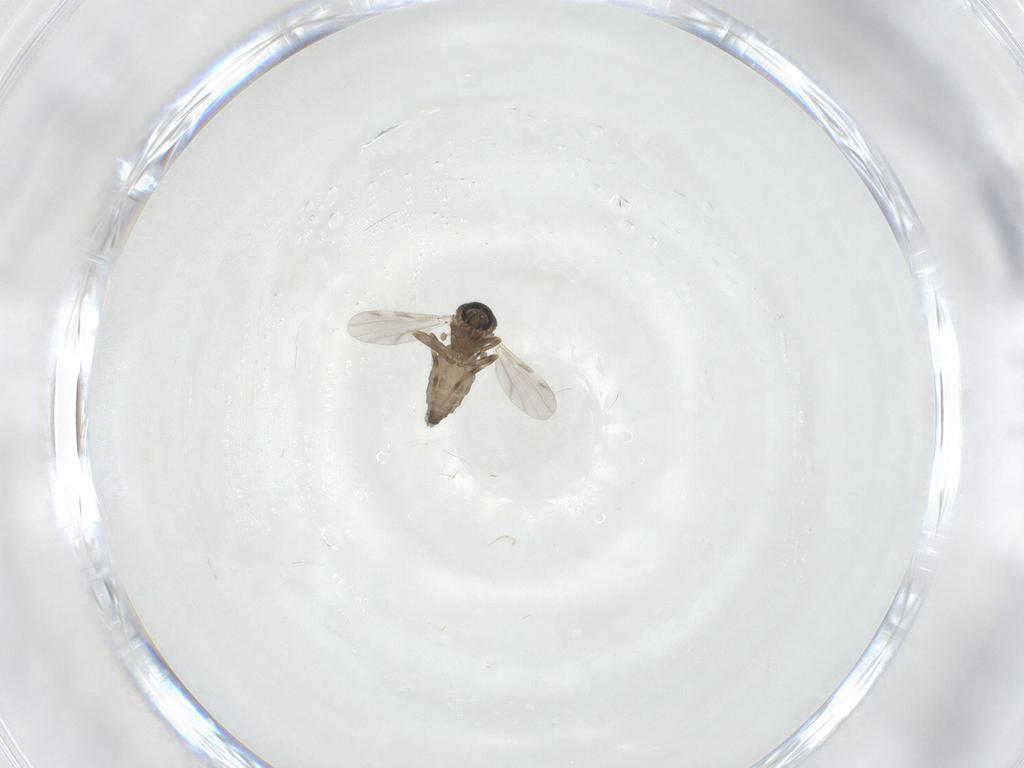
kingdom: Animalia
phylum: Arthropoda
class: Insecta
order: Diptera
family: Ceratopogonidae
